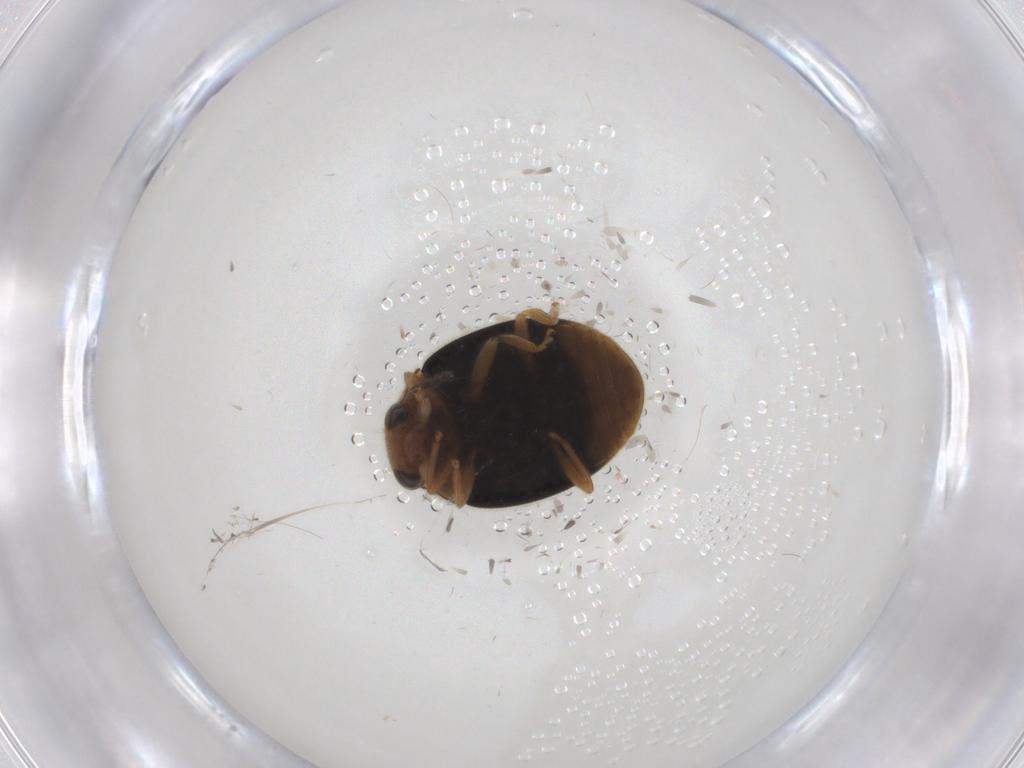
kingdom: Animalia
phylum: Arthropoda
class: Insecta
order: Coleoptera
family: Coccinellidae
